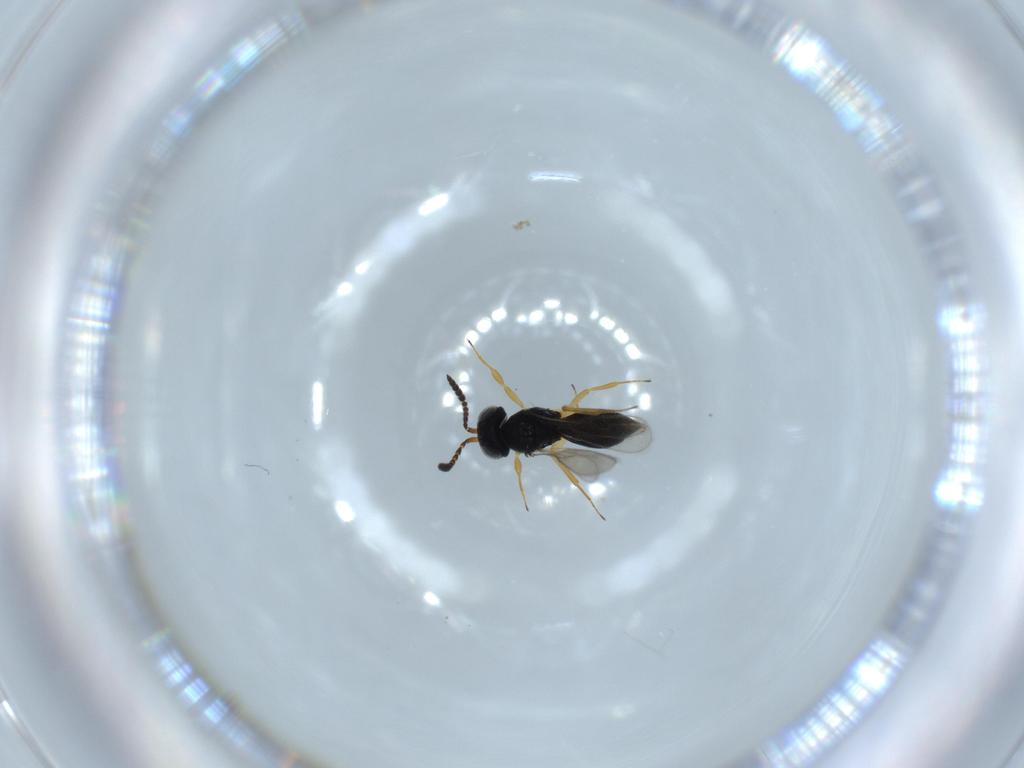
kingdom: Animalia
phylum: Arthropoda
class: Insecta
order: Hymenoptera
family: Scelionidae
